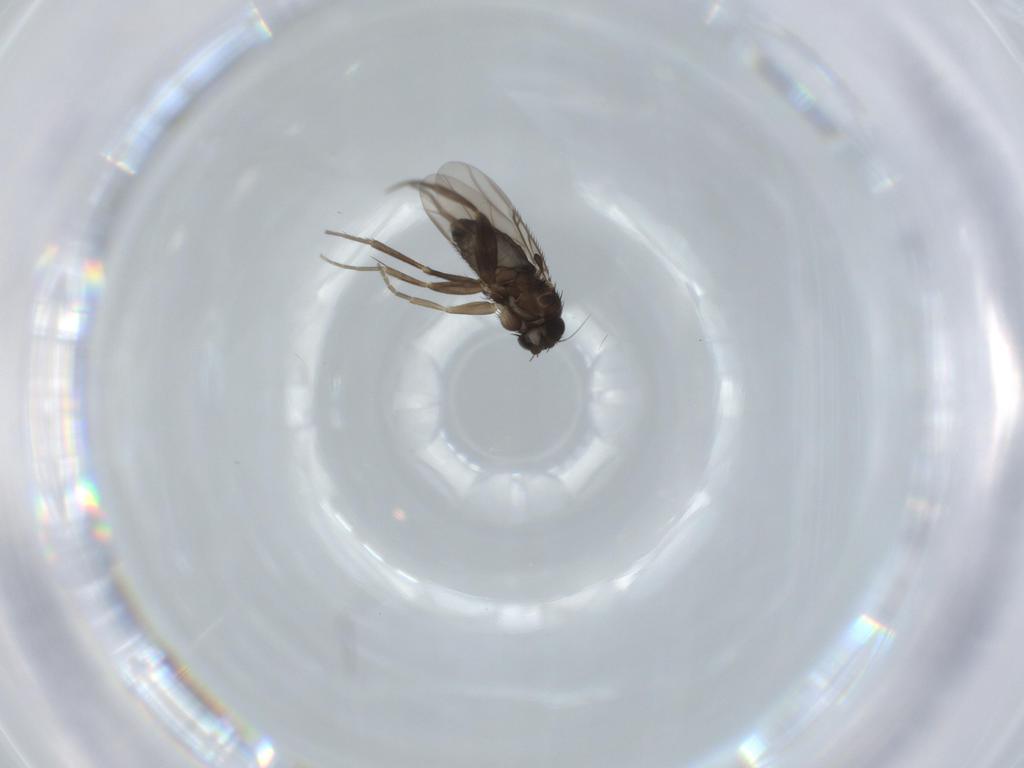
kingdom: Animalia
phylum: Arthropoda
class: Insecta
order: Diptera
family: Phoridae
